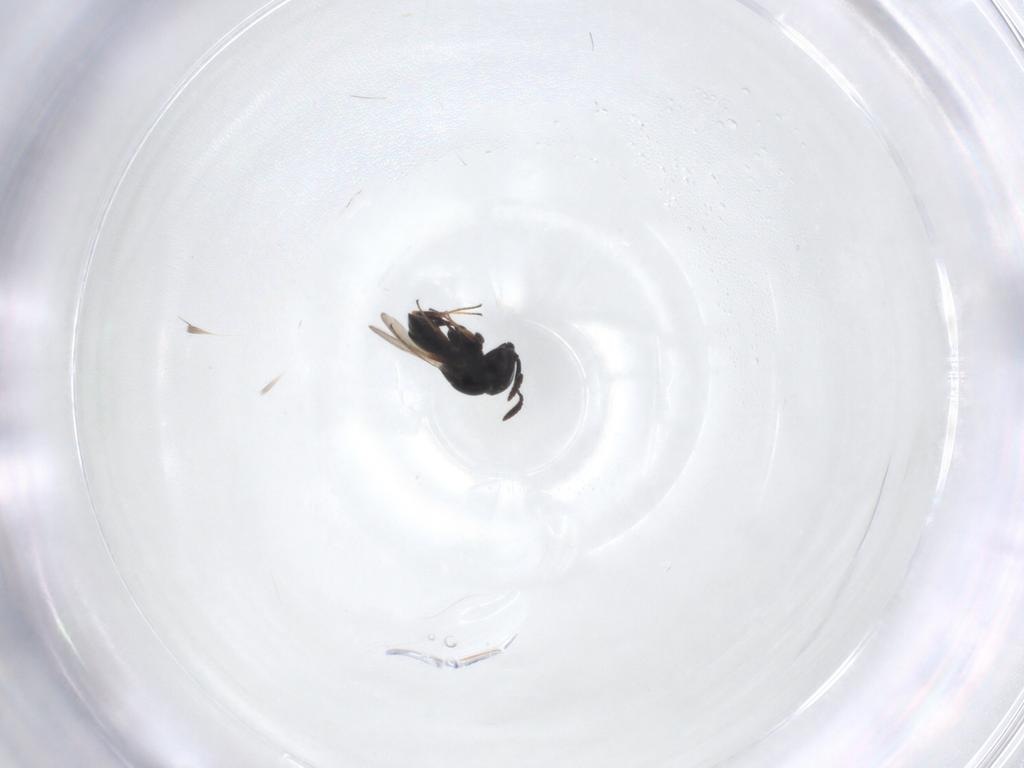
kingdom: Animalia
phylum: Arthropoda
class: Insecta
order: Hymenoptera
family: Scelionidae
